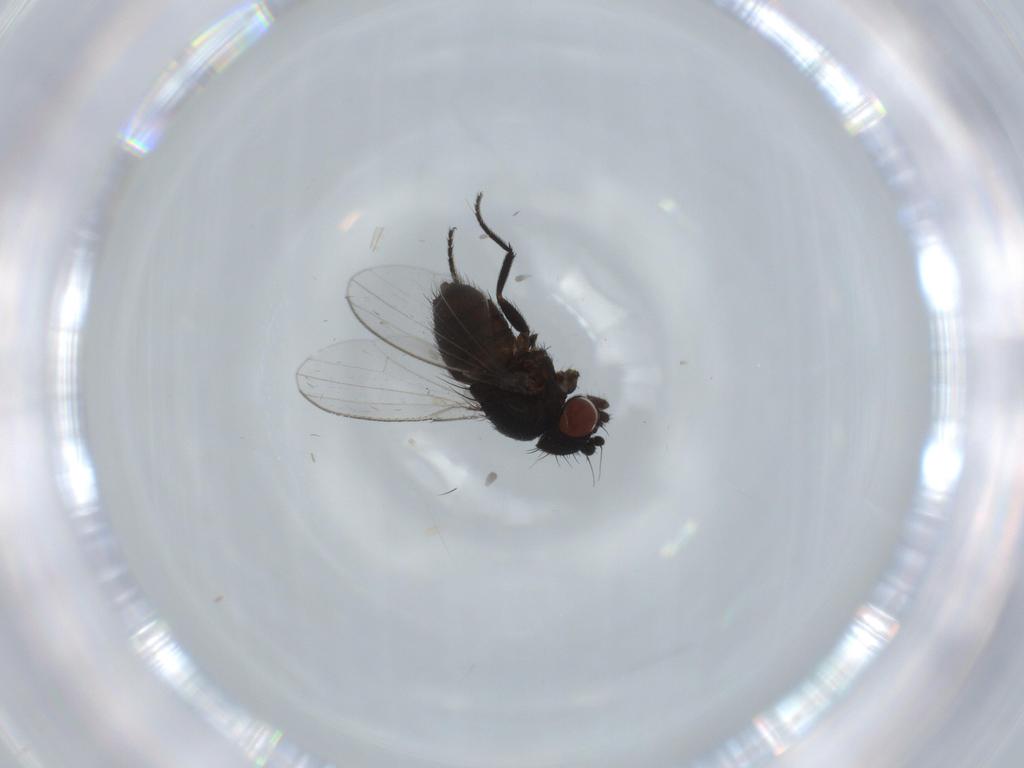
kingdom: Animalia
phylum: Arthropoda
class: Insecta
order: Diptera
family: Milichiidae
